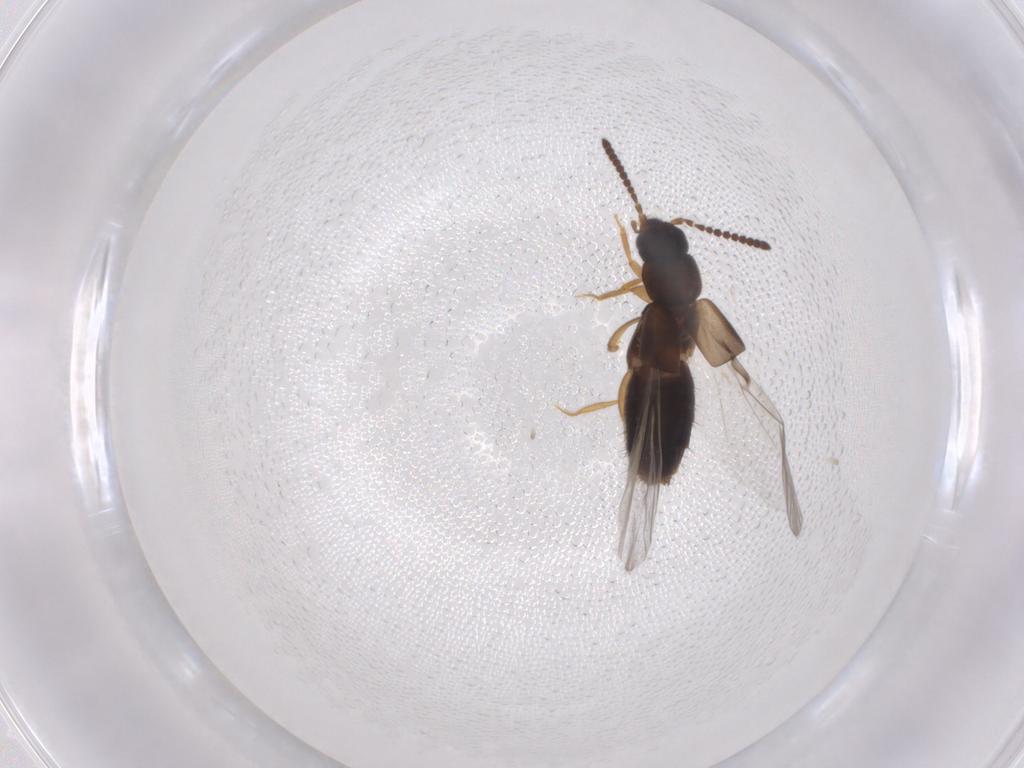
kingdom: Animalia
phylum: Arthropoda
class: Insecta
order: Coleoptera
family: Staphylinidae
